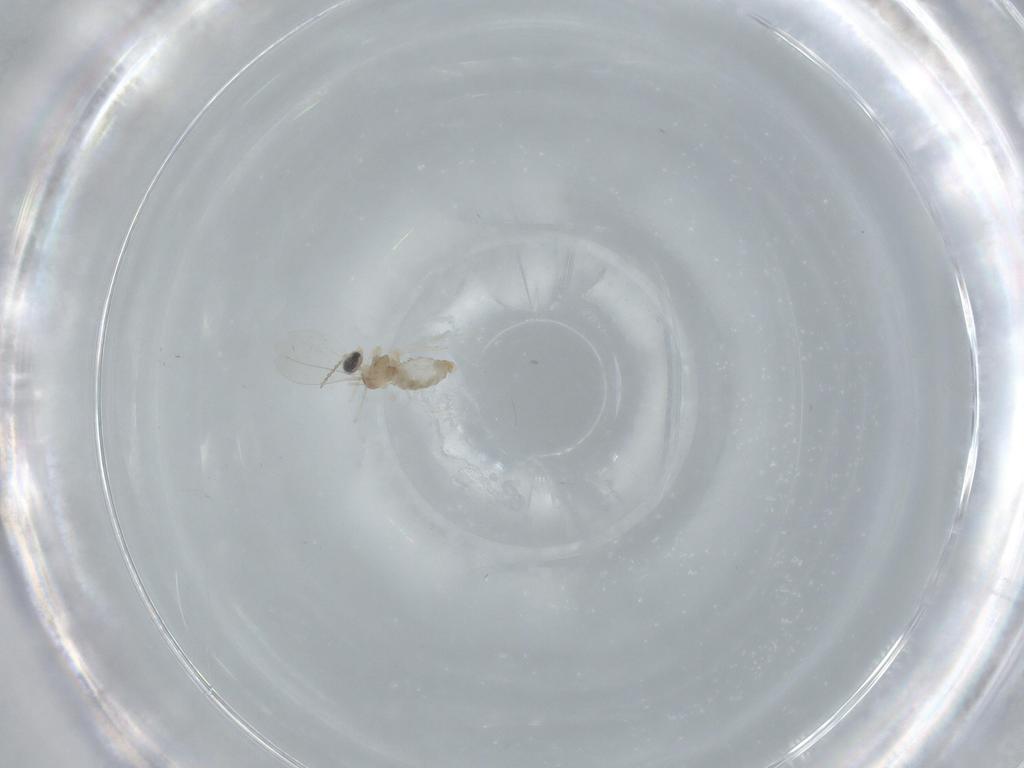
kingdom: Animalia
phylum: Arthropoda
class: Insecta
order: Diptera
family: Cecidomyiidae
